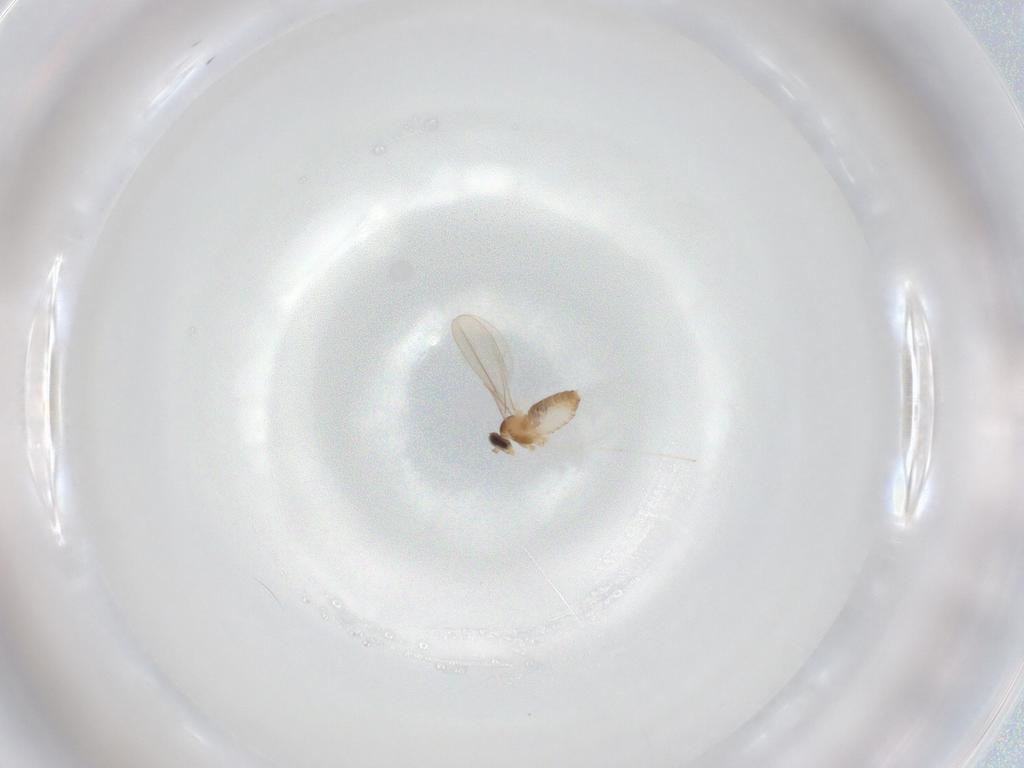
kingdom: Animalia
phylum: Arthropoda
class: Insecta
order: Diptera
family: Cecidomyiidae
